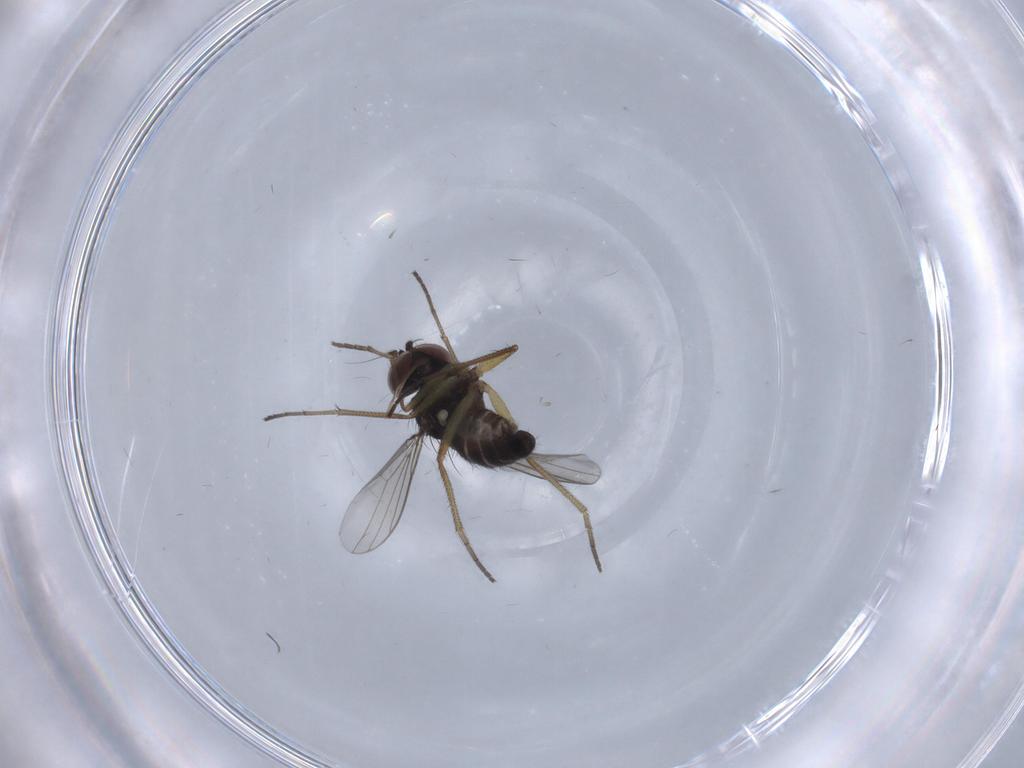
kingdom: Animalia
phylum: Arthropoda
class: Insecta
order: Diptera
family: Dolichopodidae
